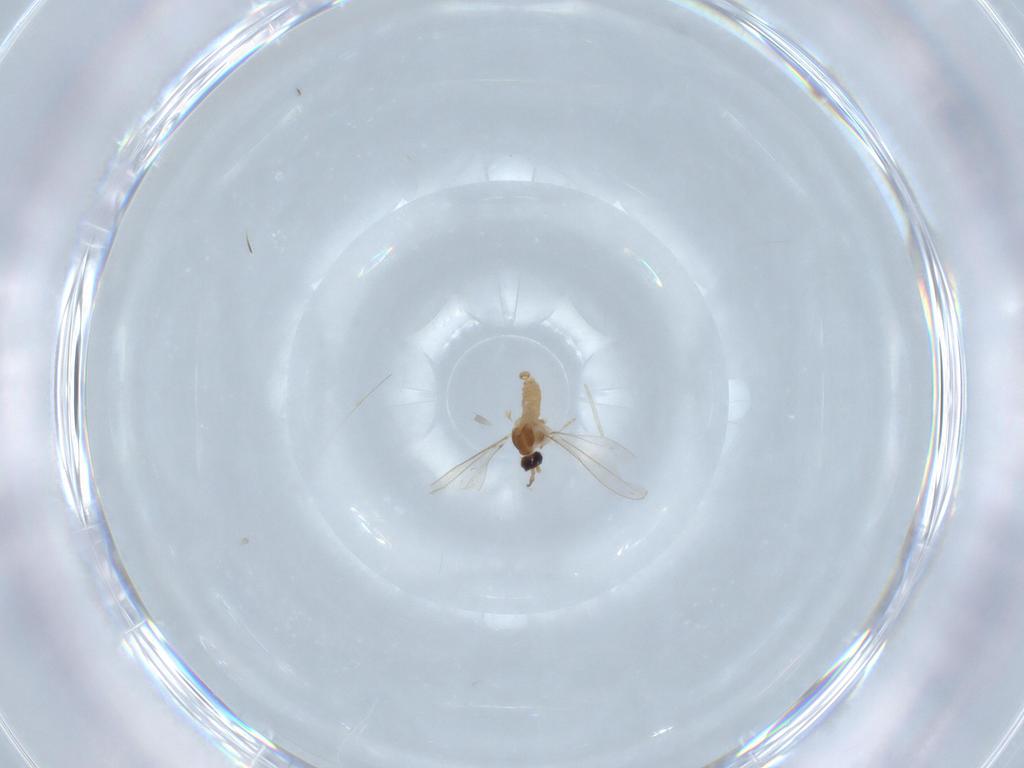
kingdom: Animalia
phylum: Arthropoda
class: Insecta
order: Diptera
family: Cecidomyiidae
